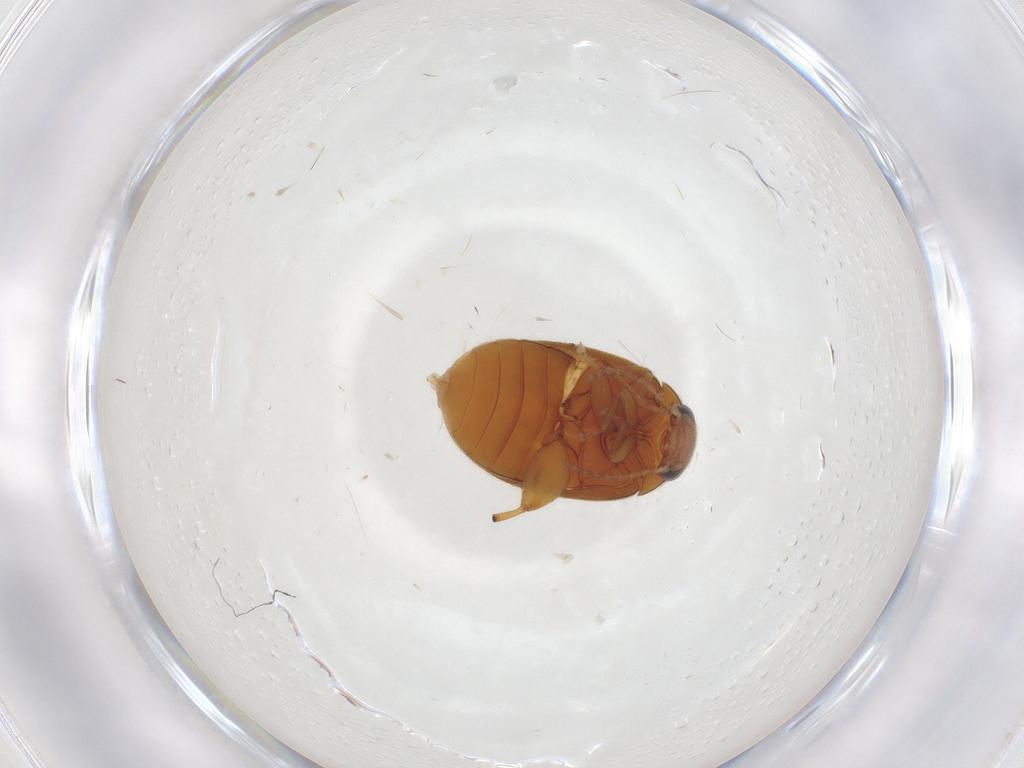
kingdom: Animalia
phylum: Arthropoda
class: Insecta
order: Coleoptera
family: Scirtidae
